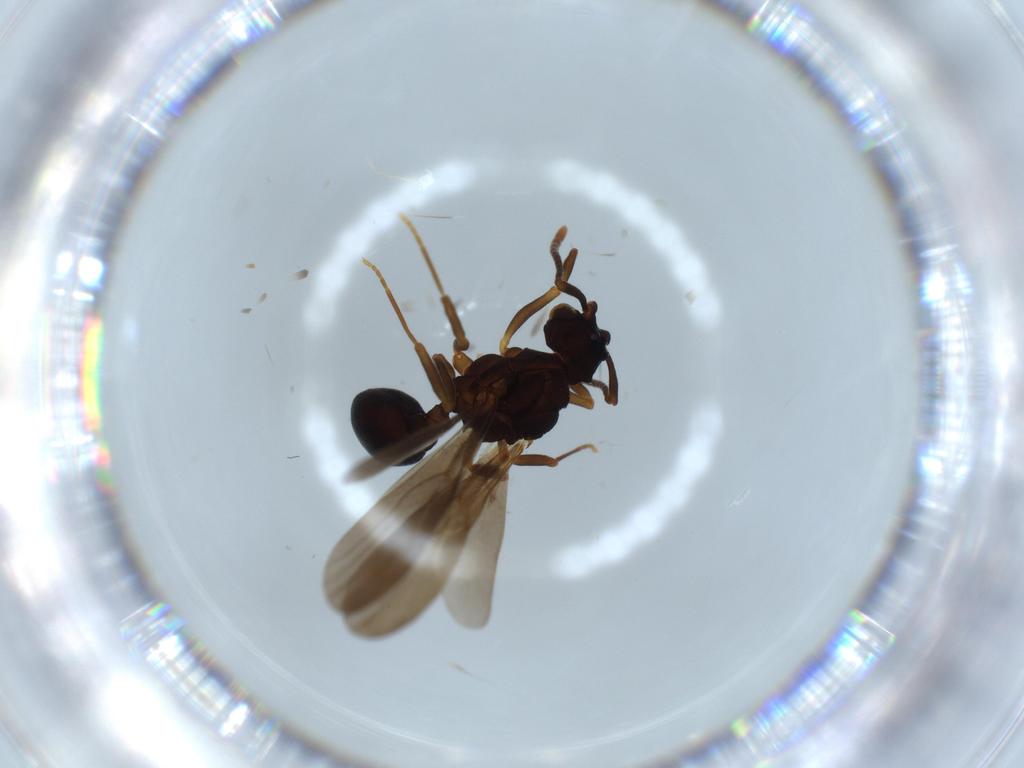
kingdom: Animalia
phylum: Arthropoda
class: Insecta
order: Hymenoptera
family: Formicidae
